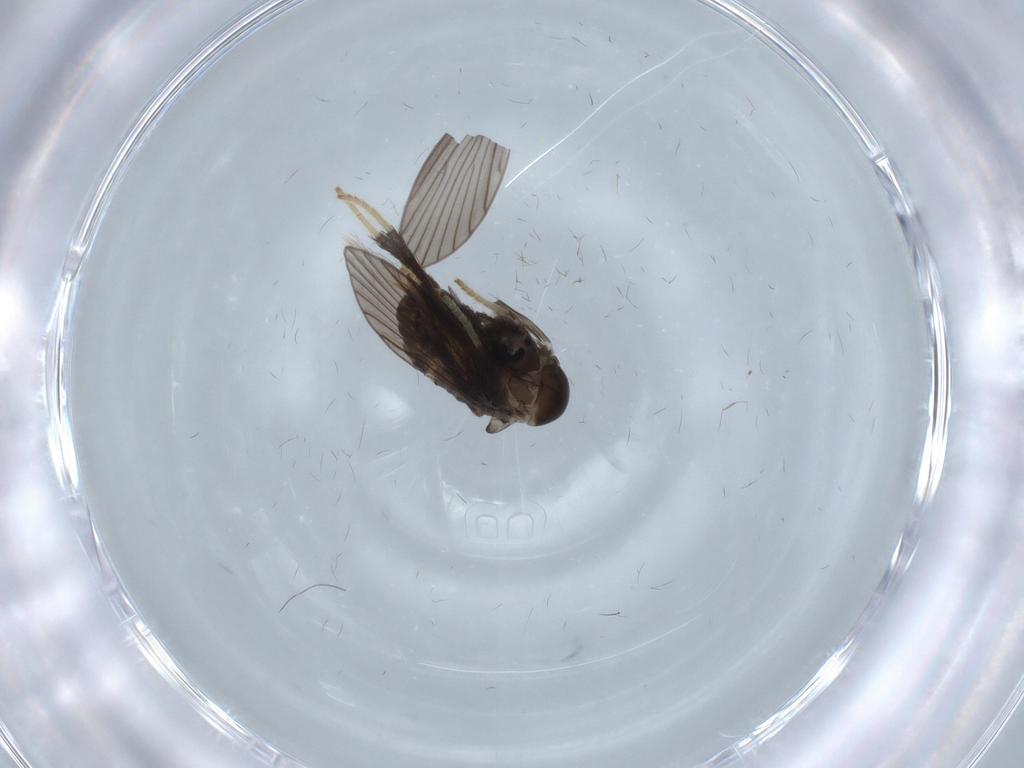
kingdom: Animalia
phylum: Arthropoda
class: Insecta
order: Diptera
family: Psychodidae
